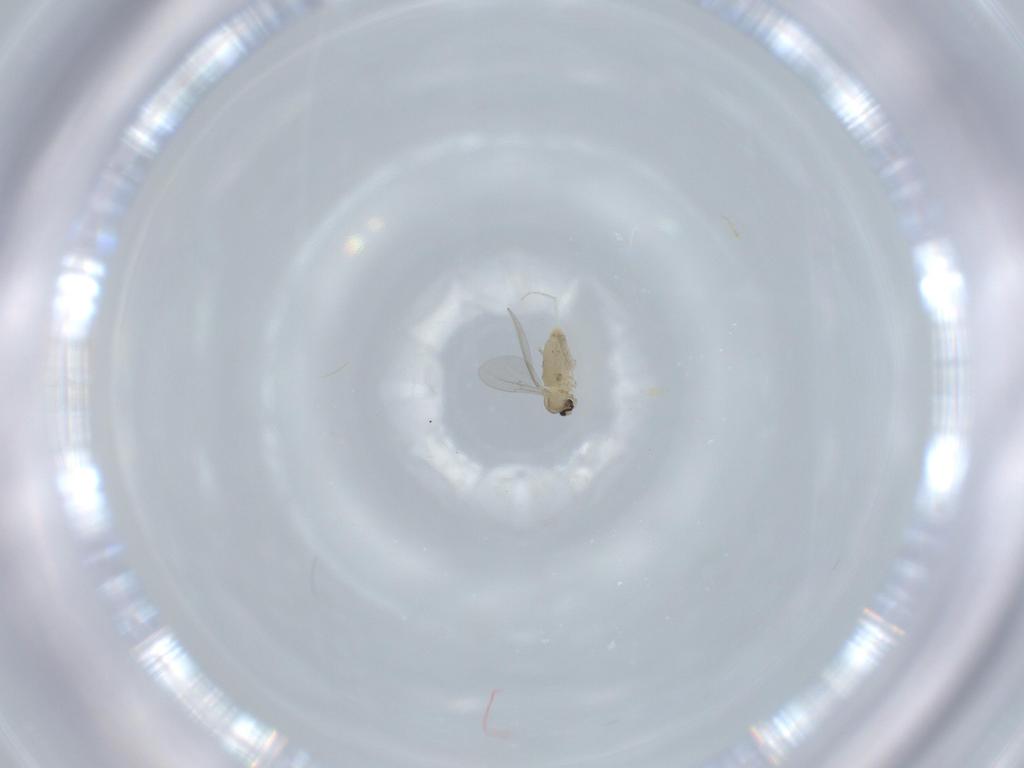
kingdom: Animalia
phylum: Arthropoda
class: Insecta
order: Diptera
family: Cecidomyiidae
